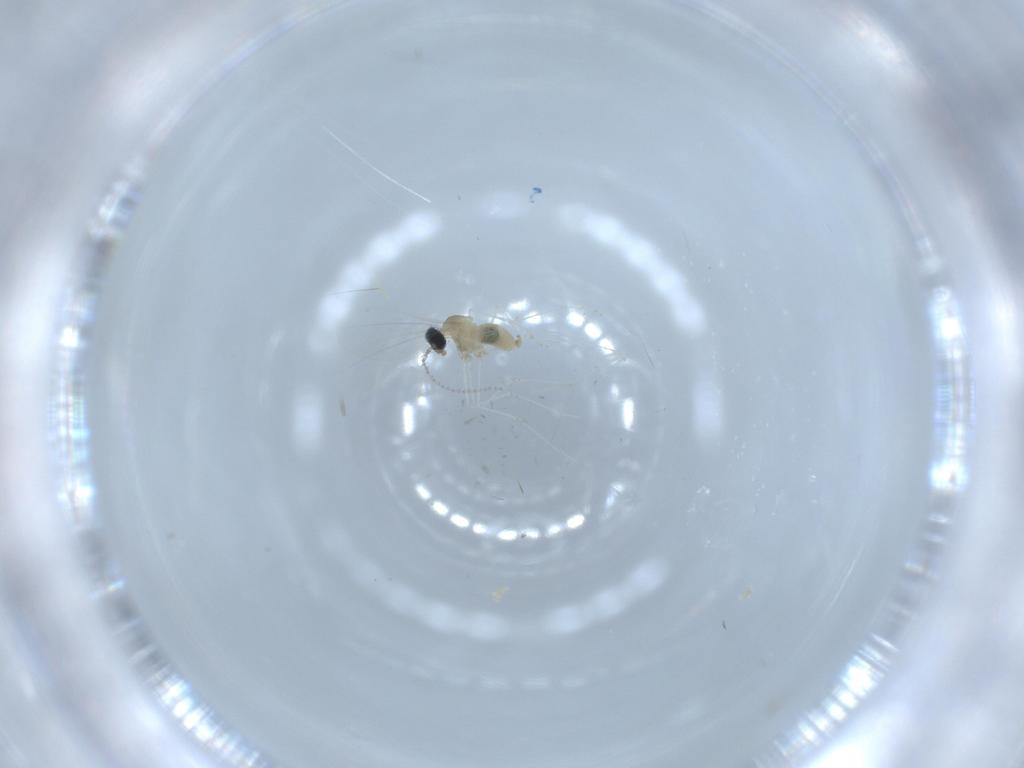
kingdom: Animalia
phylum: Arthropoda
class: Insecta
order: Diptera
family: Cecidomyiidae
